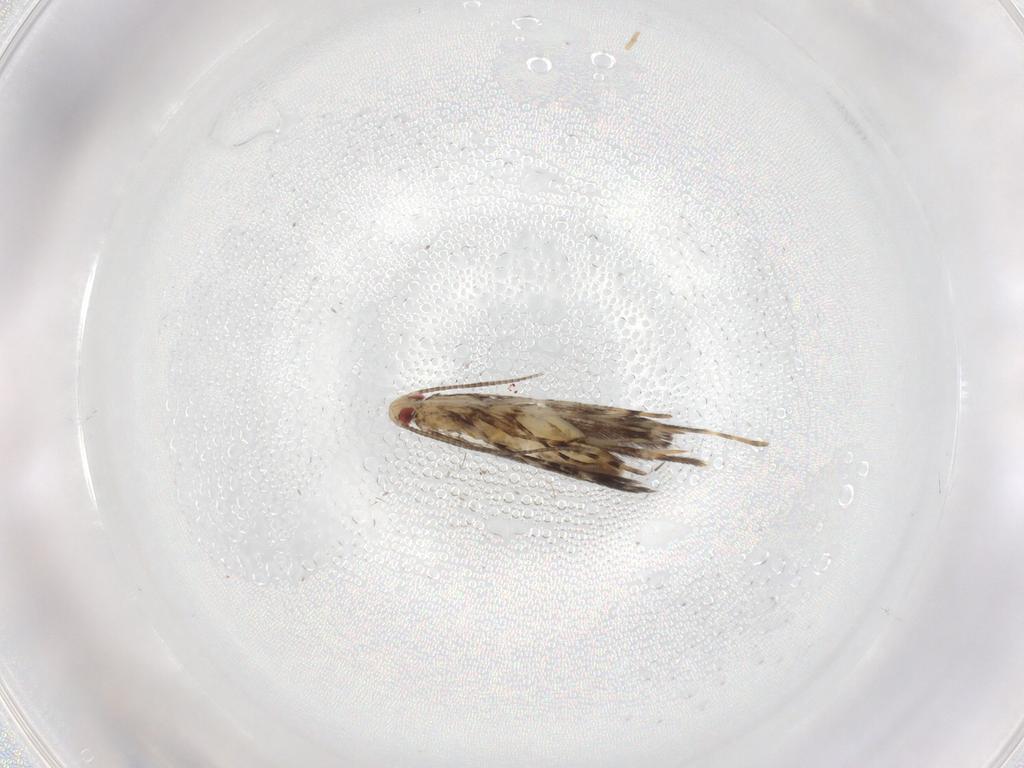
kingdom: Animalia
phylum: Arthropoda
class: Insecta
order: Lepidoptera
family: Gracillariidae
